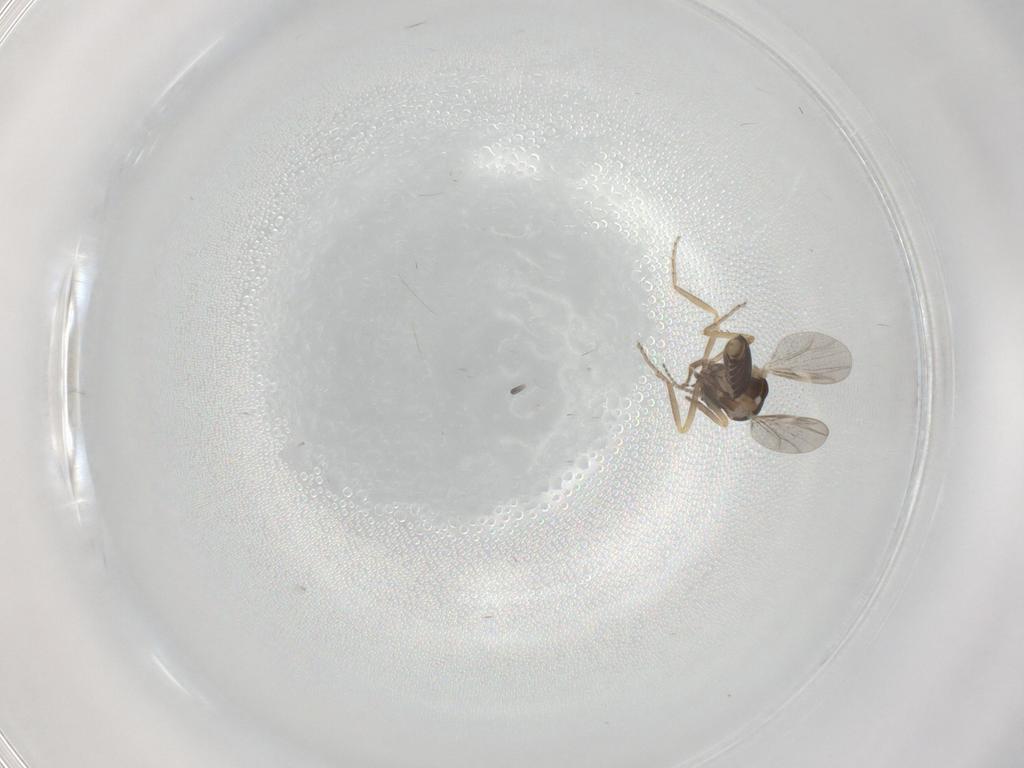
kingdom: Animalia
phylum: Arthropoda
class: Insecta
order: Diptera
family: Ceratopogonidae
